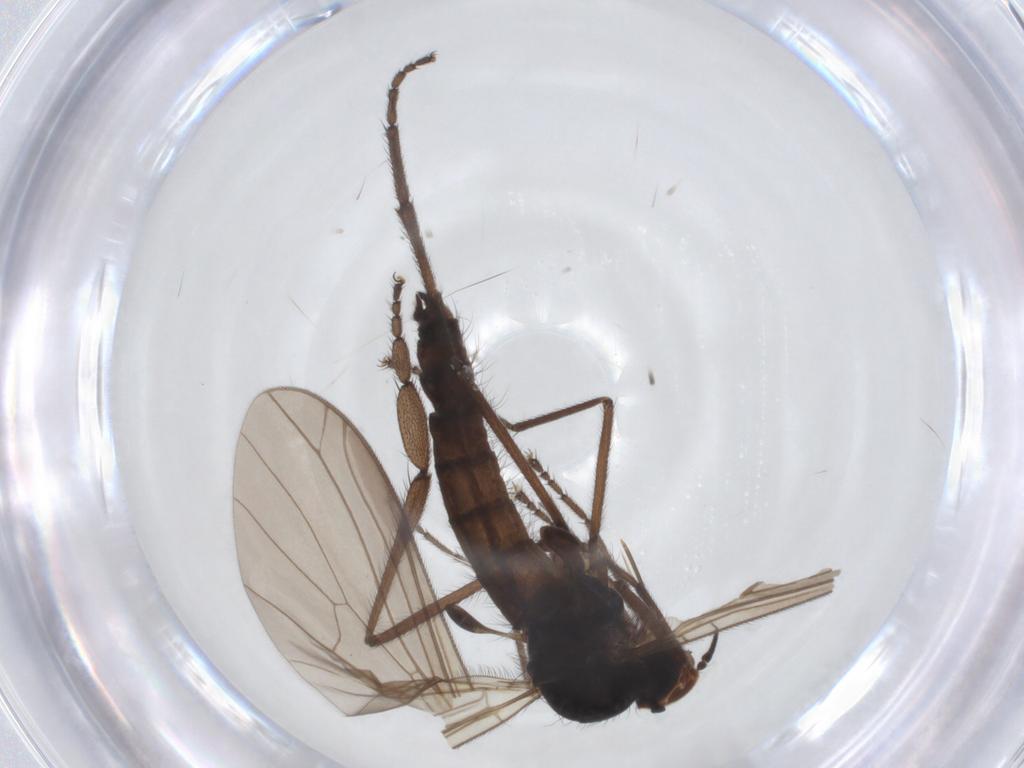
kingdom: Animalia
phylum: Arthropoda
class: Insecta
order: Diptera
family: Empididae
